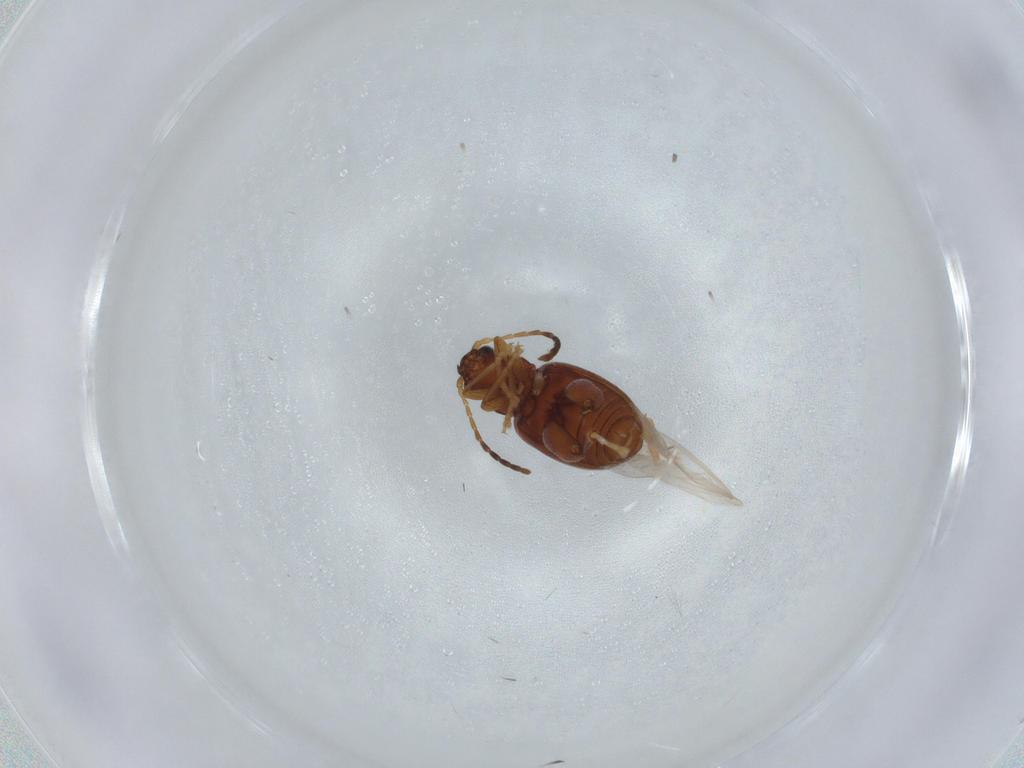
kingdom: Animalia
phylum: Arthropoda
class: Insecta
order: Coleoptera
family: Chrysomelidae
